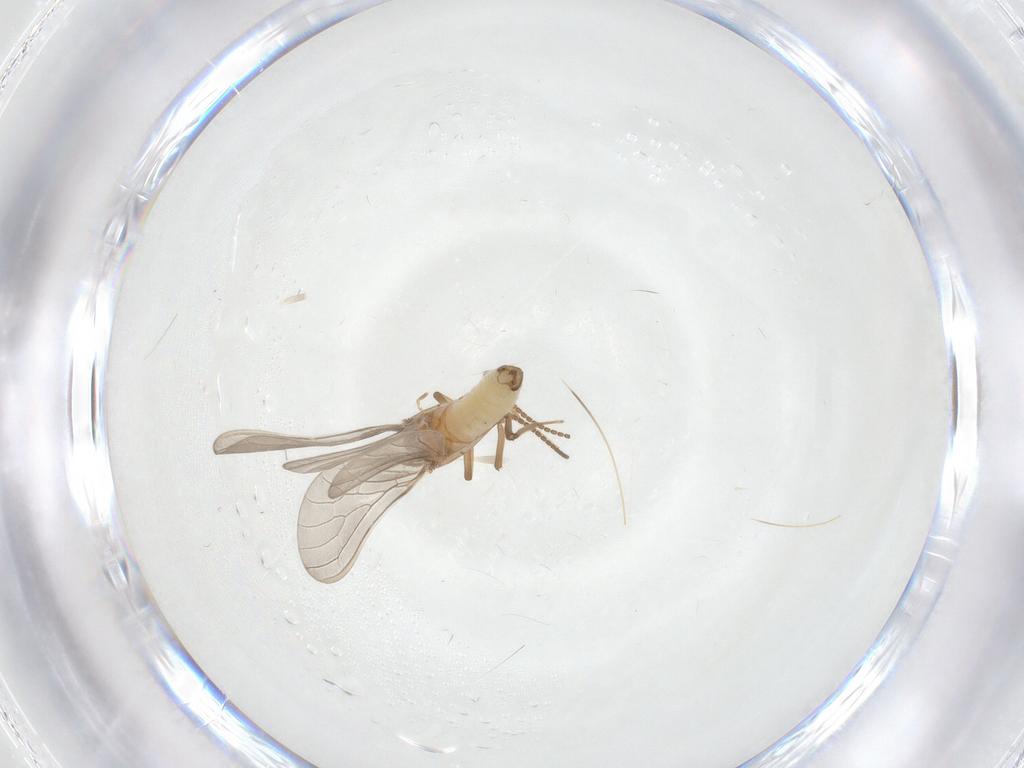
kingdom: Animalia
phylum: Arthropoda
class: Insecta
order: Neuroptera
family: Coniopterygidae
